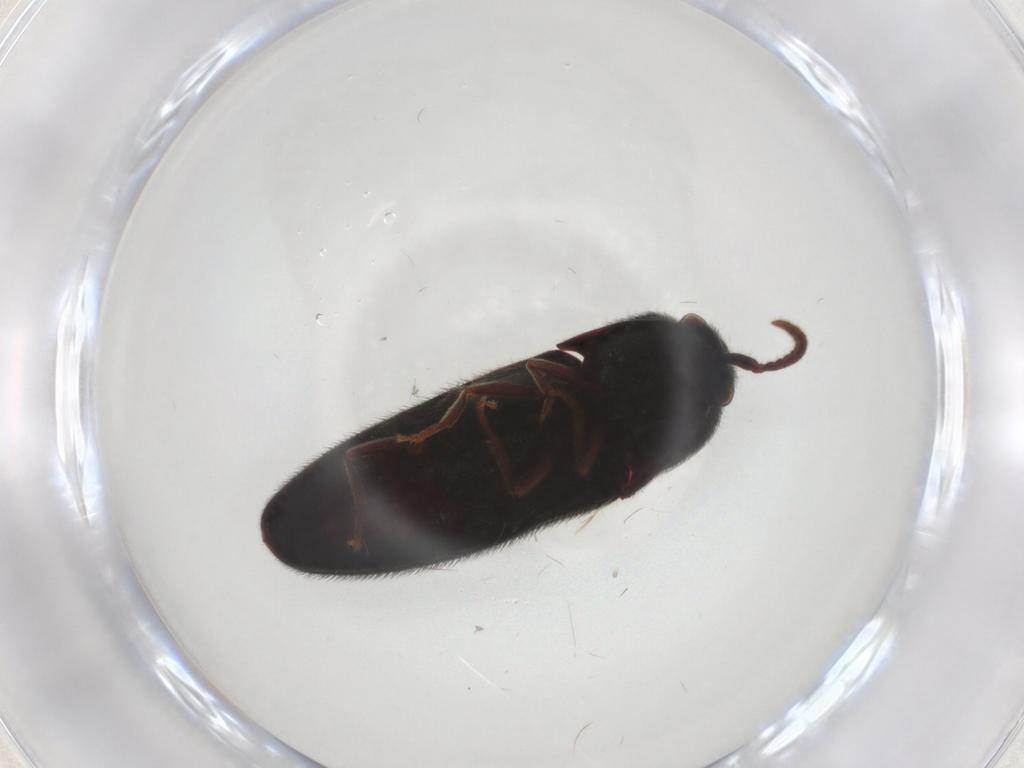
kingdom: Animalia
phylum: Arthropoda
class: Insecta
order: Coleoptera
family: Eucnemidae
